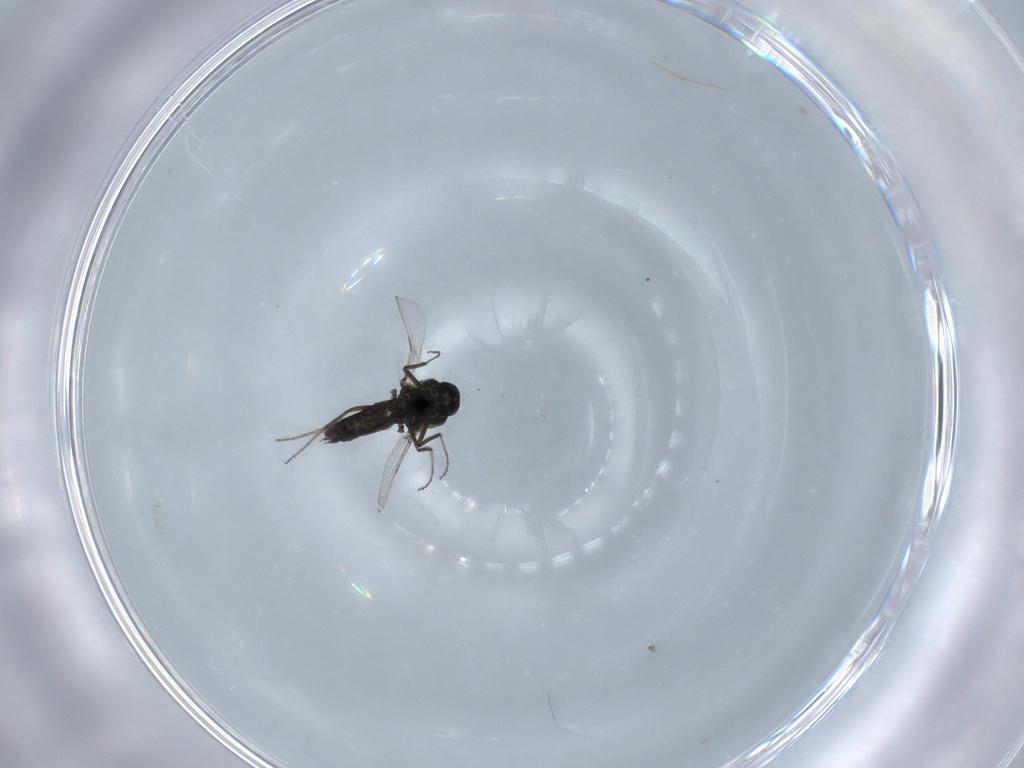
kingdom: Animalia
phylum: Arthropoda
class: Insecta
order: Diptera
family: Ceratopogonidae
